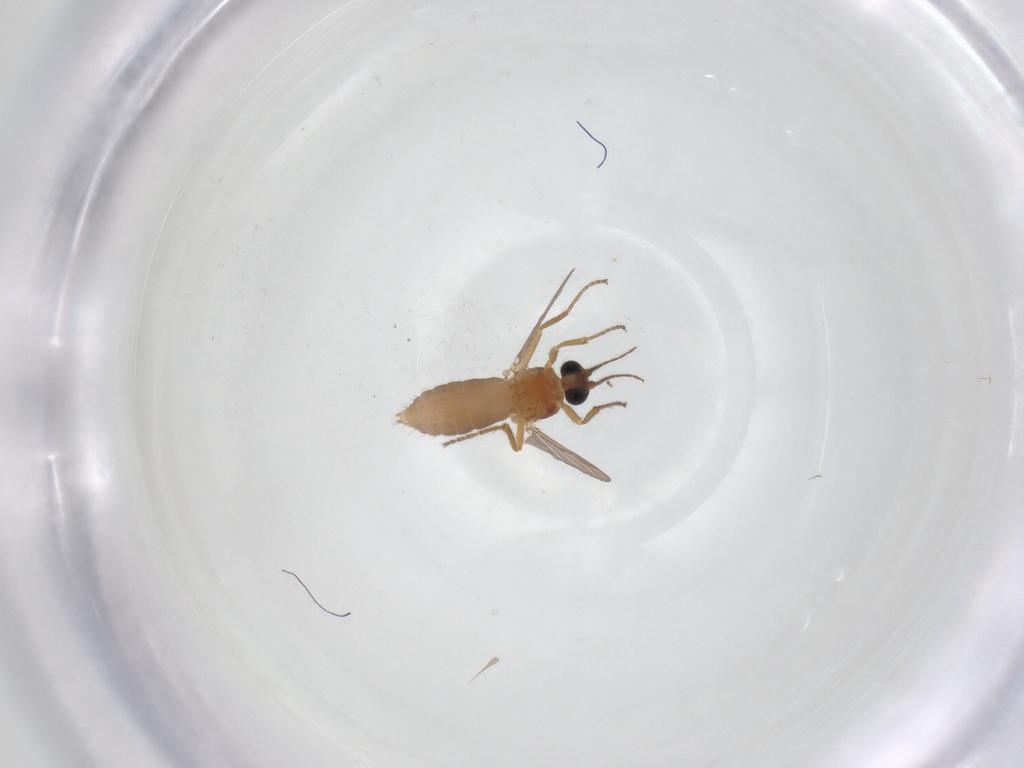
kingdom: Animalia
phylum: Arthropoda
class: Insecta
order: Diptera
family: Ceratopogonidae
